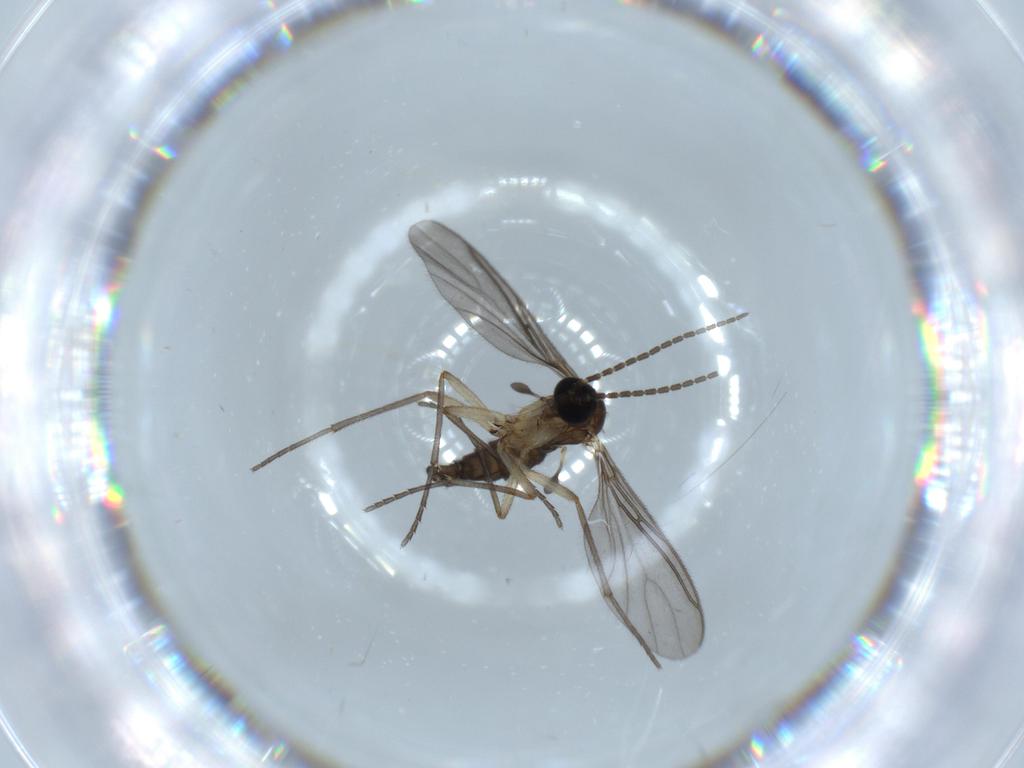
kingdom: Animalia
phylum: Arthropoda
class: Insecta
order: Diptera
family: Sciaridae
